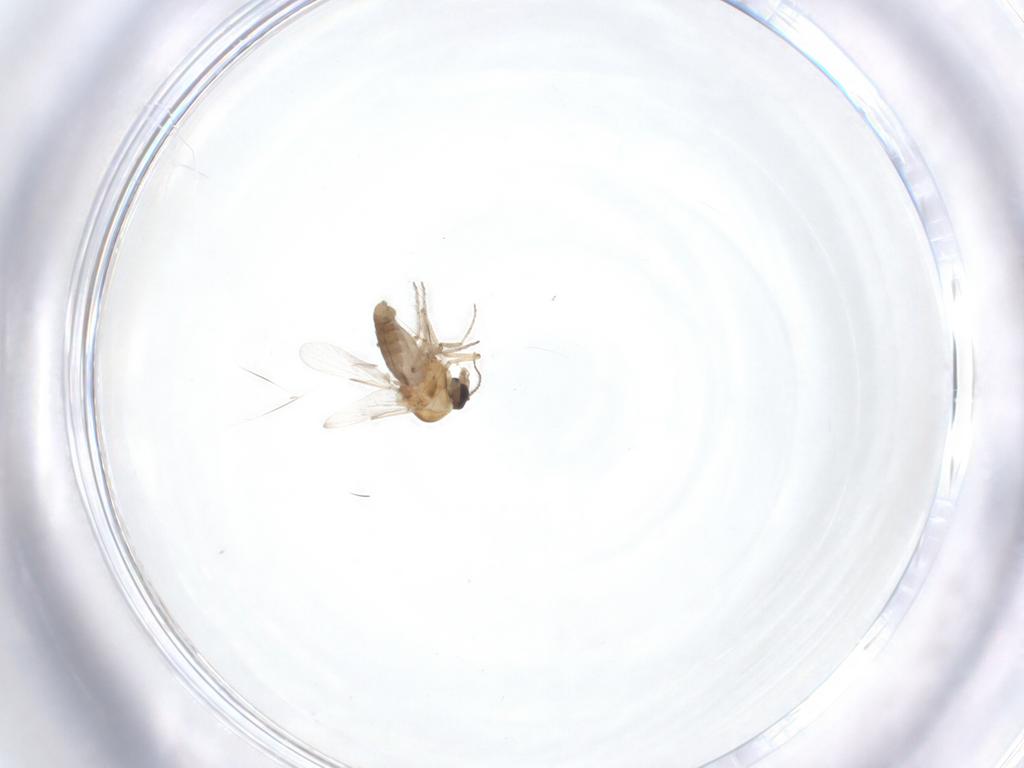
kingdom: Animalia
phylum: Arthropoda
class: Insecta
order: Diptera
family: Ceratopogonidae
